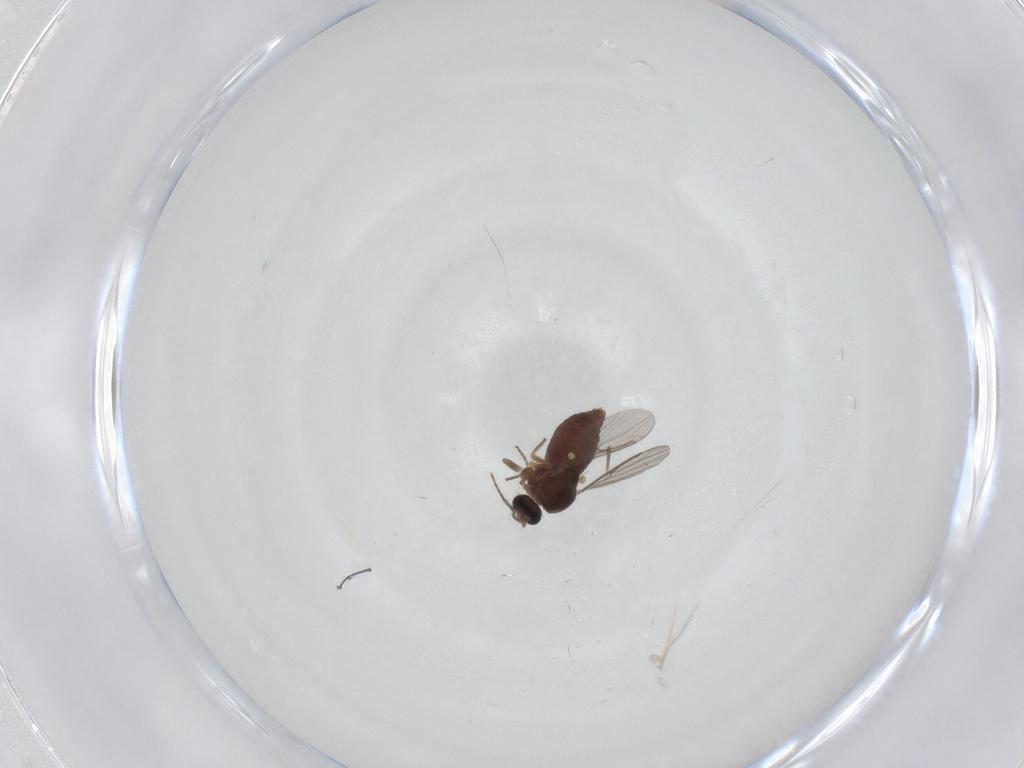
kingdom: Animalia
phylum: Arthropoda
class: Insecta
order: Diptera
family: Ceratopogonidae
